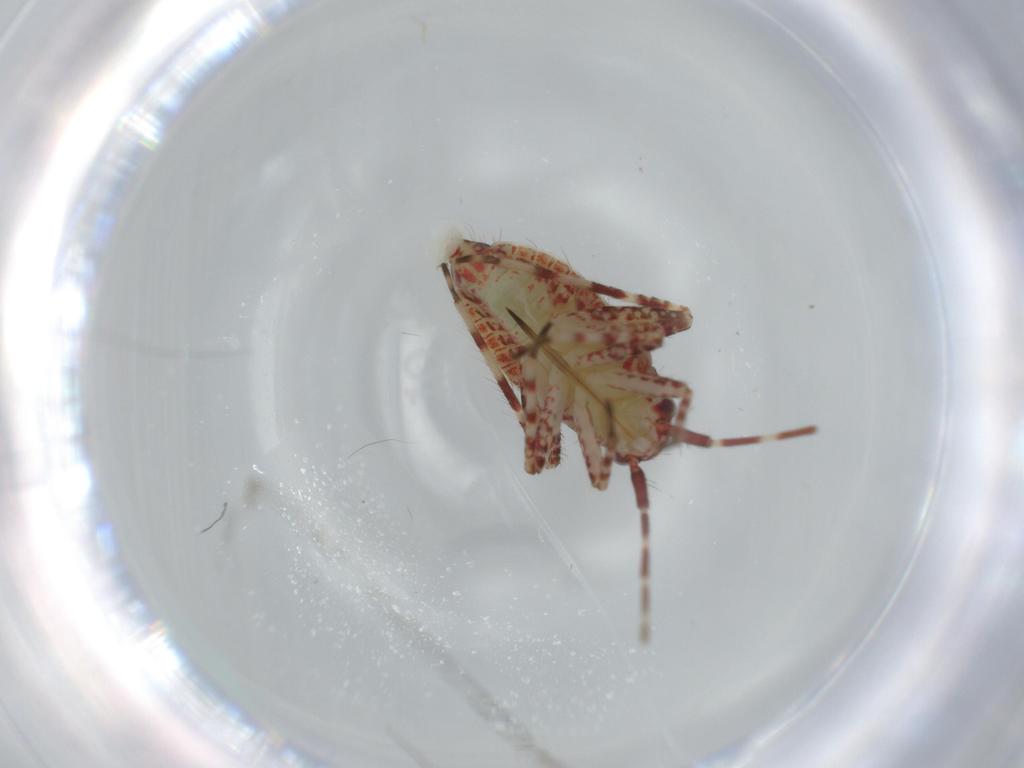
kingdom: Animalia
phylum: Arthropoda
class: Insecta
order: Hemiptera
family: Miridae
